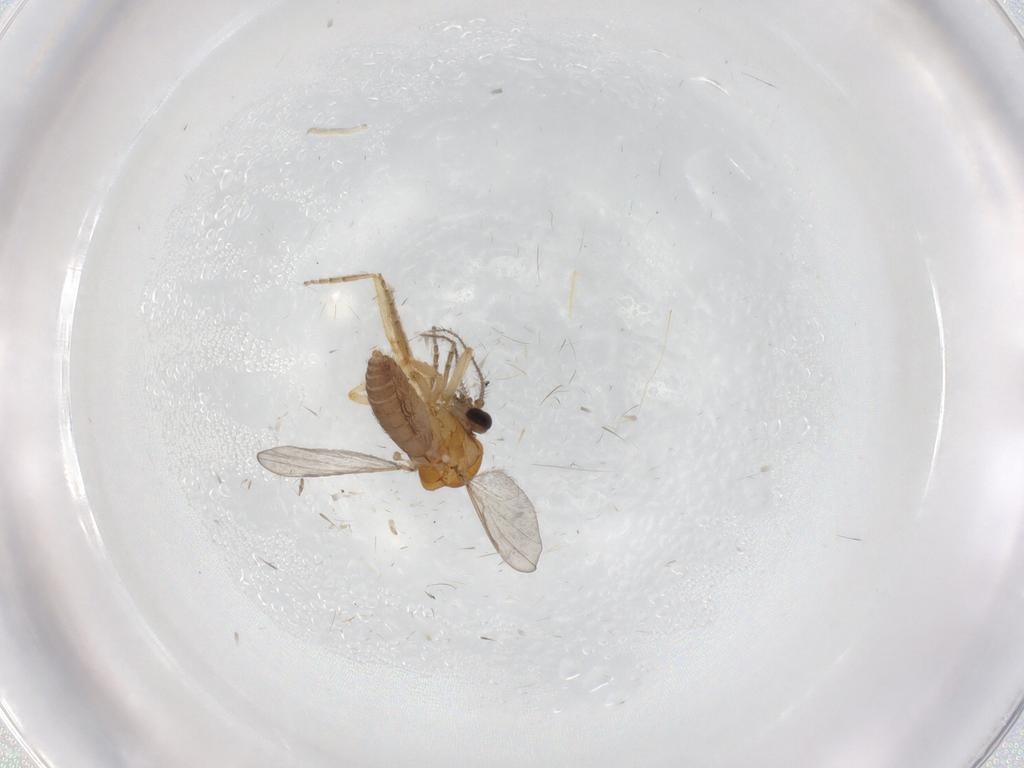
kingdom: Animalia
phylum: Arthropoda
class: Insecta
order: Diptera
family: Ceratopogonidae
